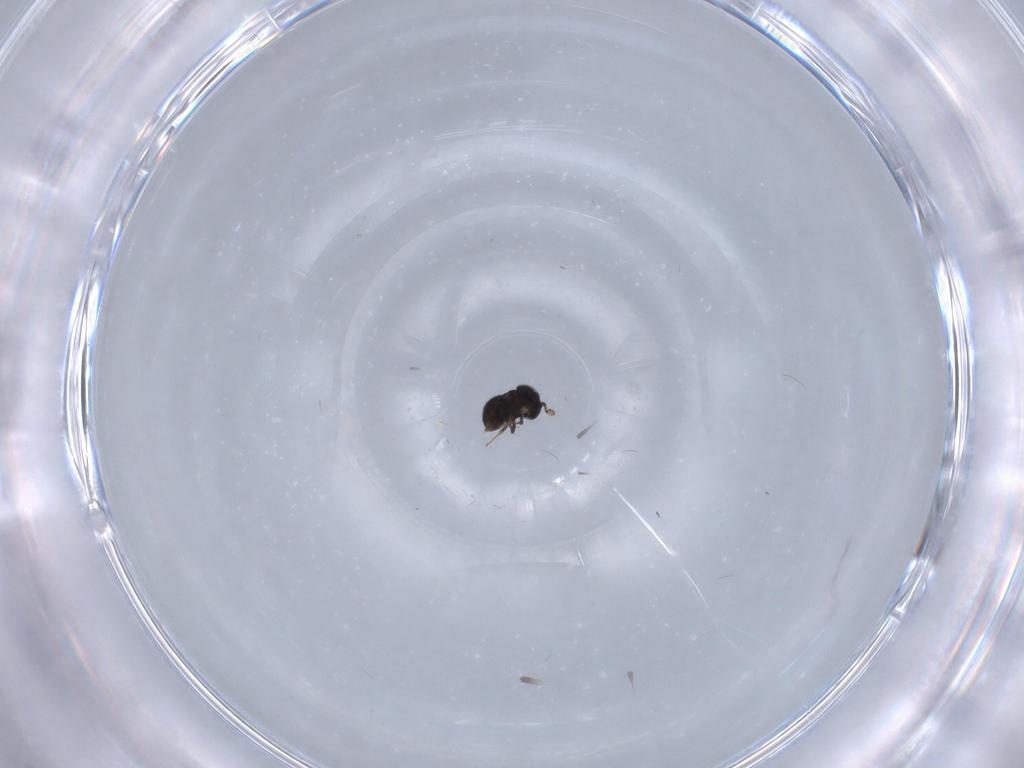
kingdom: Animalia
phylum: Arthropoda
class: Insecta
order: Hymenoptera
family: Scelionidae
